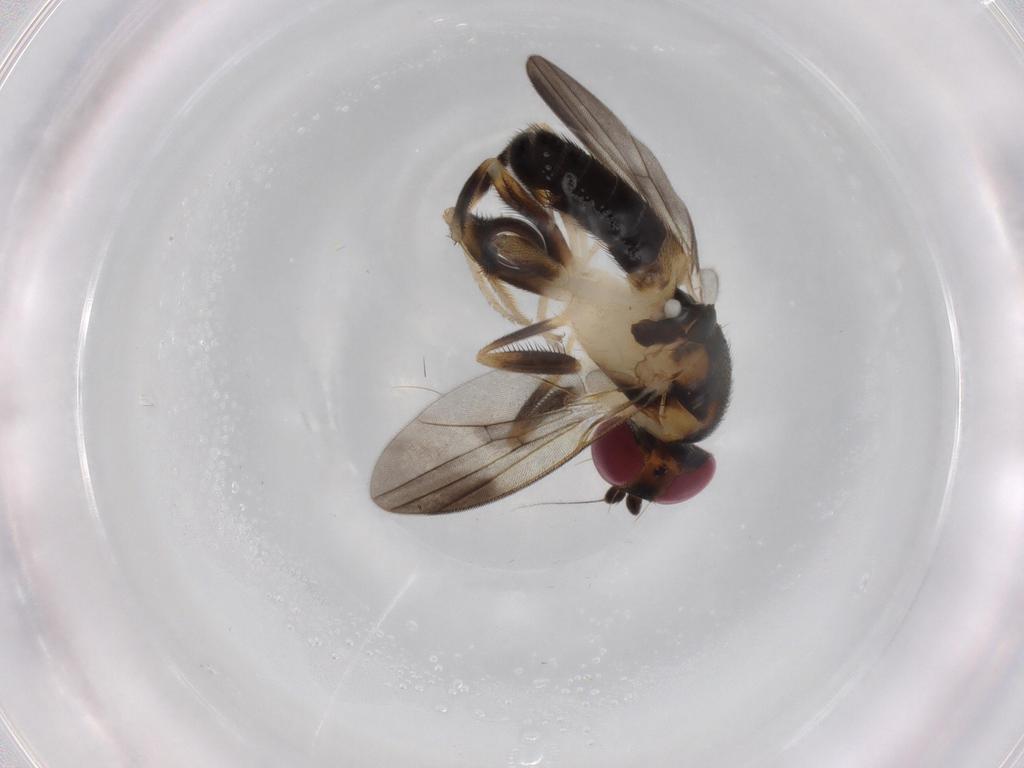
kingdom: Animalia
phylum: Arthropoda
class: Insecta
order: Diptera
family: Clusiidae
